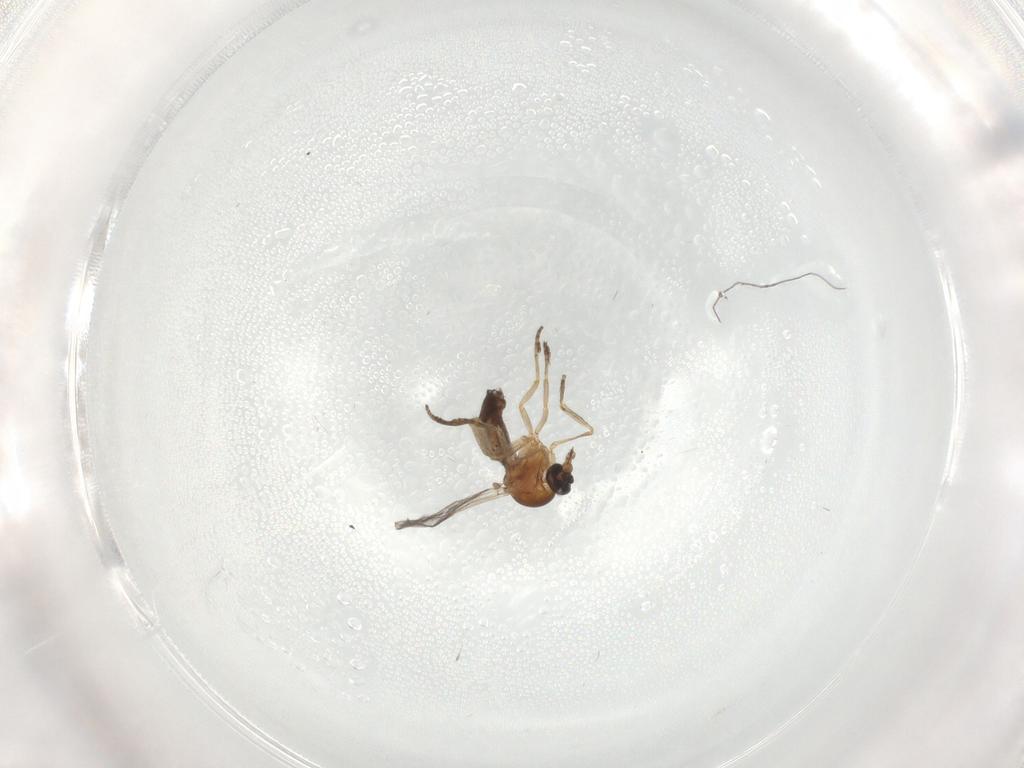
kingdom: Animalia
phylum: Arthropoda
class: Insecta
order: Diptera
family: Ceratopogonidae
